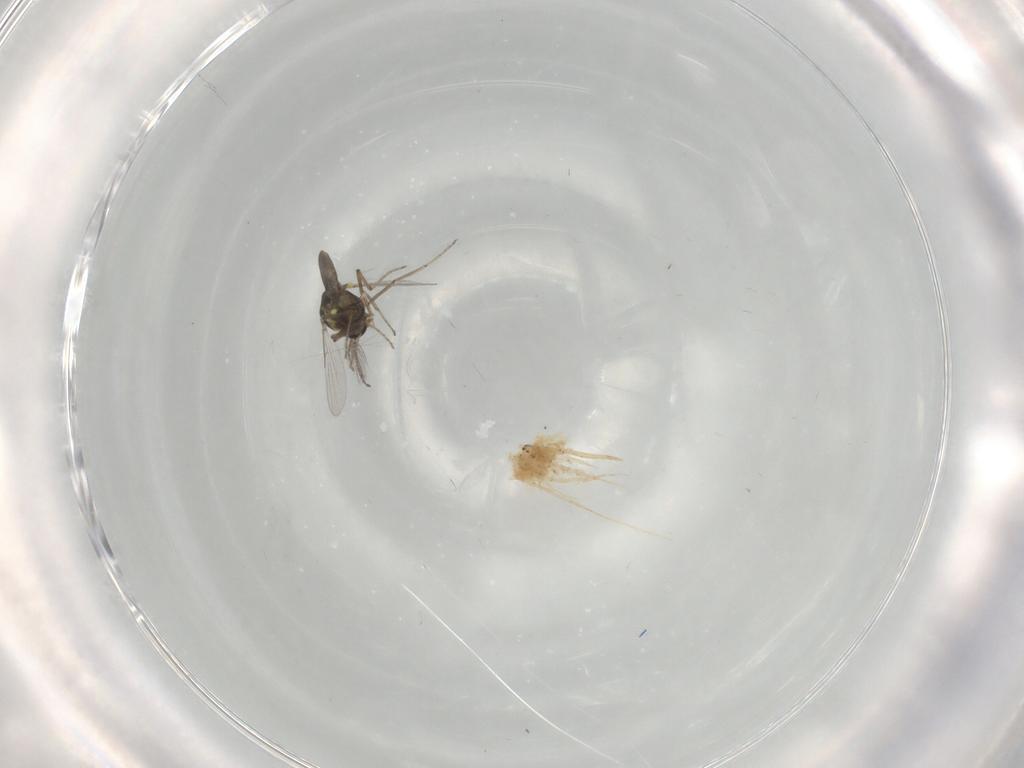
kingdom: Animalia
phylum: Arthropoda
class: Insecta
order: Diptera
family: Ceratopogonidae
